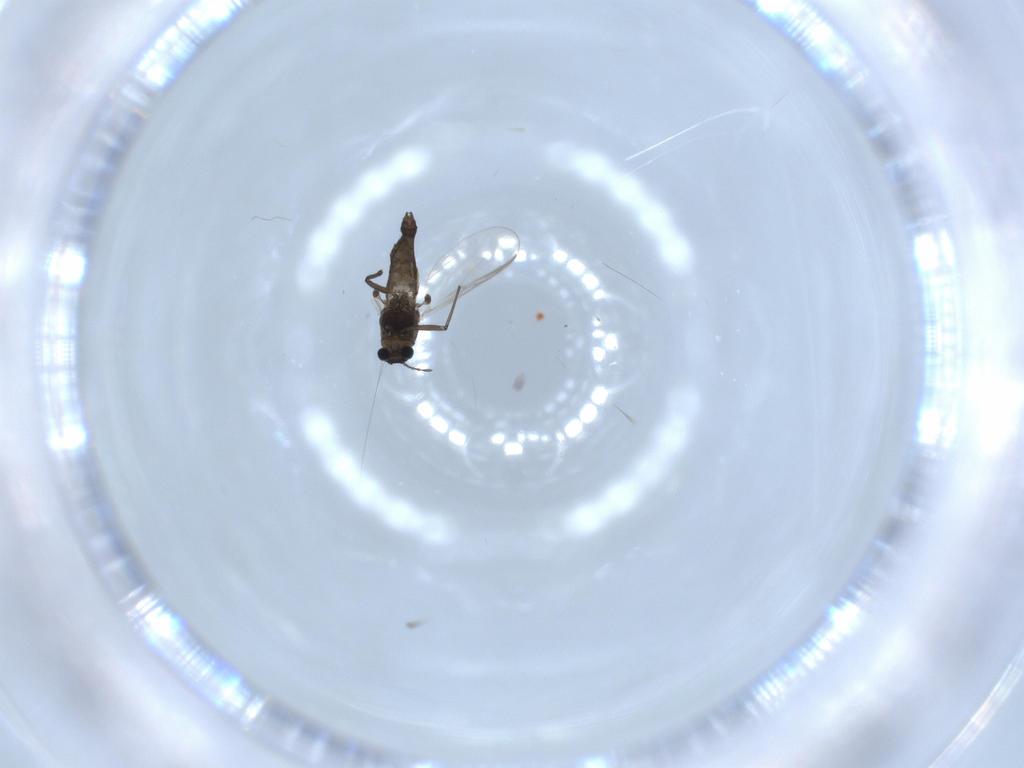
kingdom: Animalia
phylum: Arthropoda
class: Insecta
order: Diptera
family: Chironomidae
